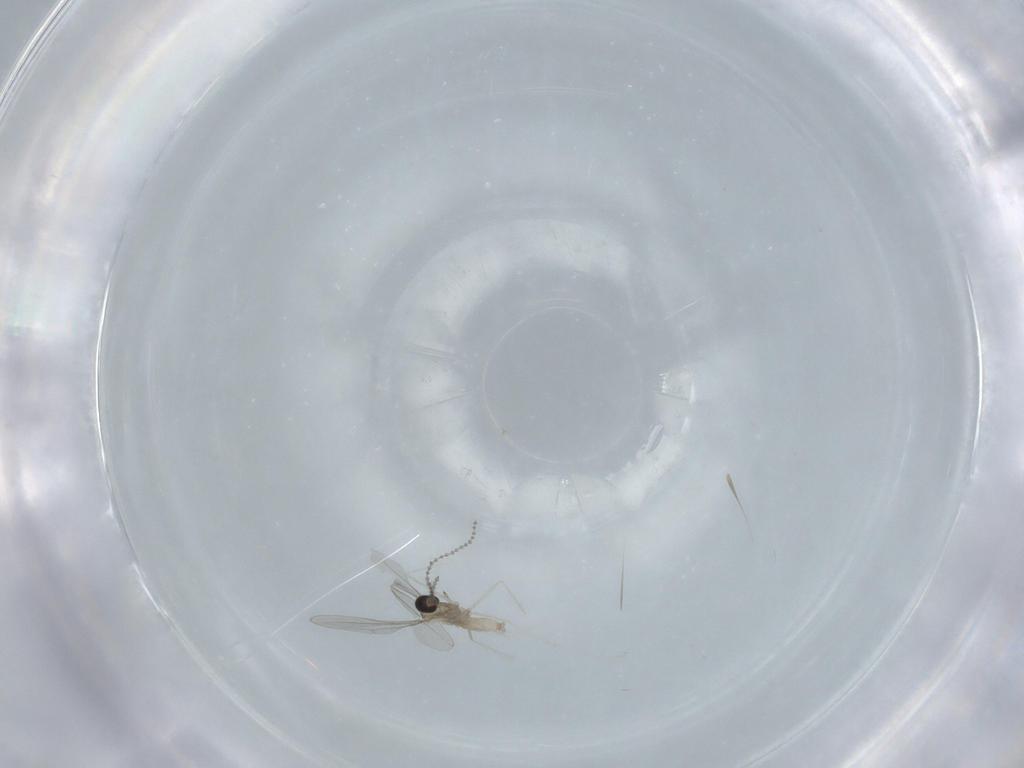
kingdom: Animalia
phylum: Arthropoda
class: Insecta
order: Diptera
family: Cecidomyiidae
